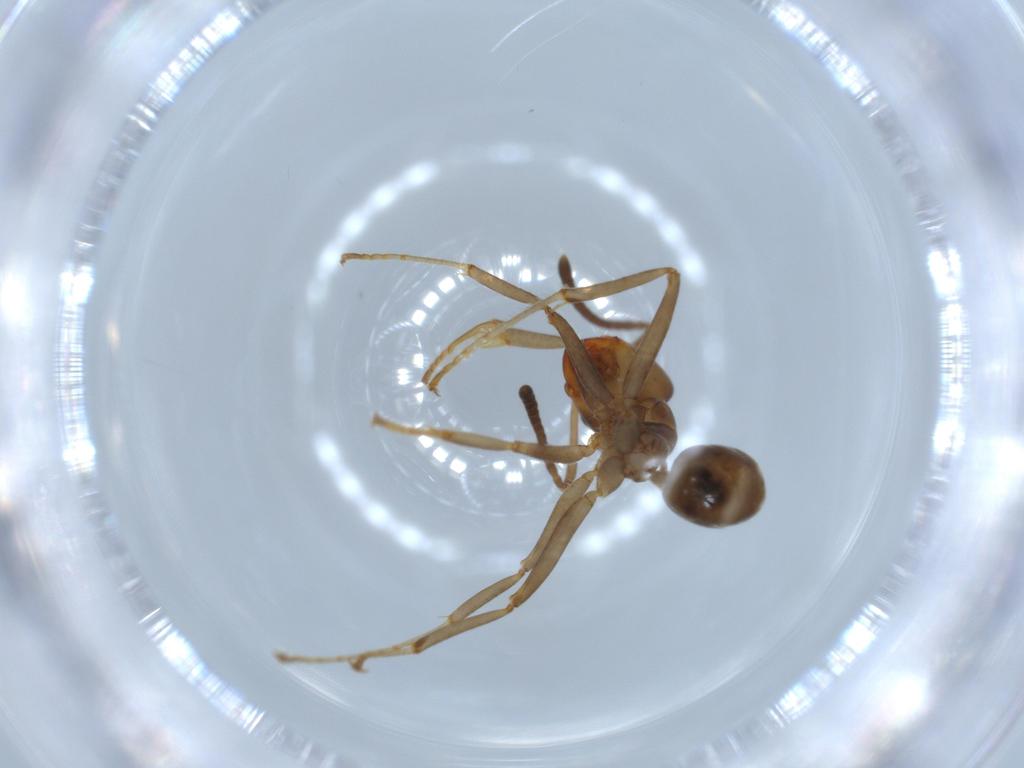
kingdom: Animalia
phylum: Arthropoda
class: Insecta
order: Hymenoptera
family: Formicidae
